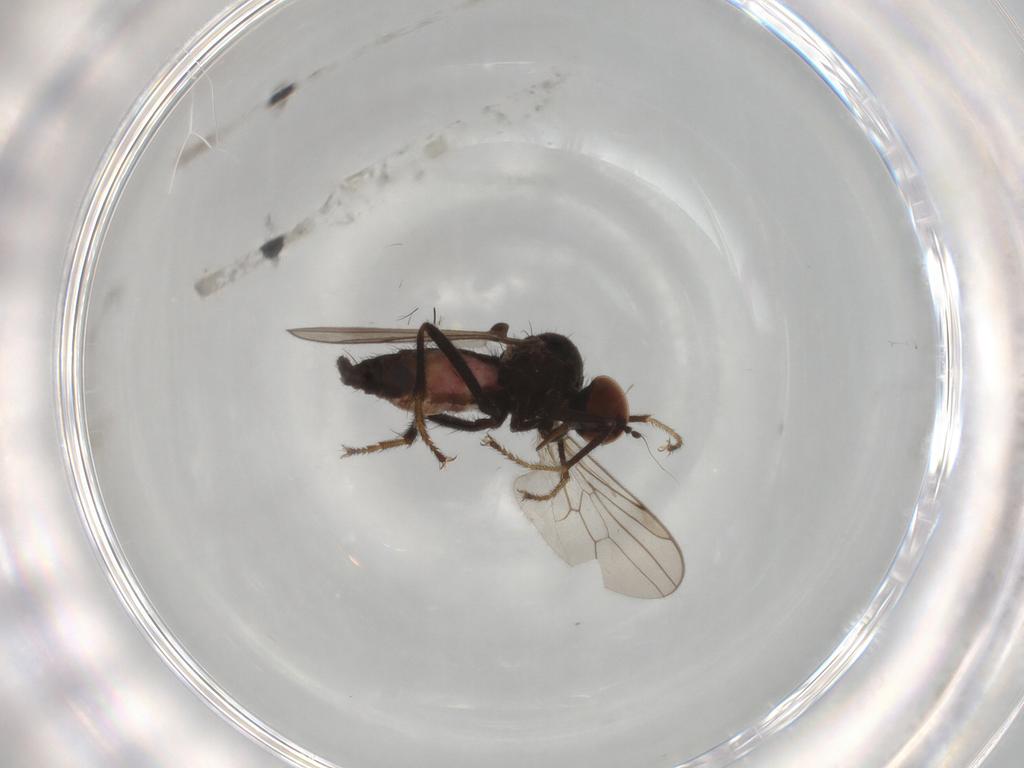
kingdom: Animalia
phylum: Arthropoda
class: Insecta
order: Diptera
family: Hybotidae
